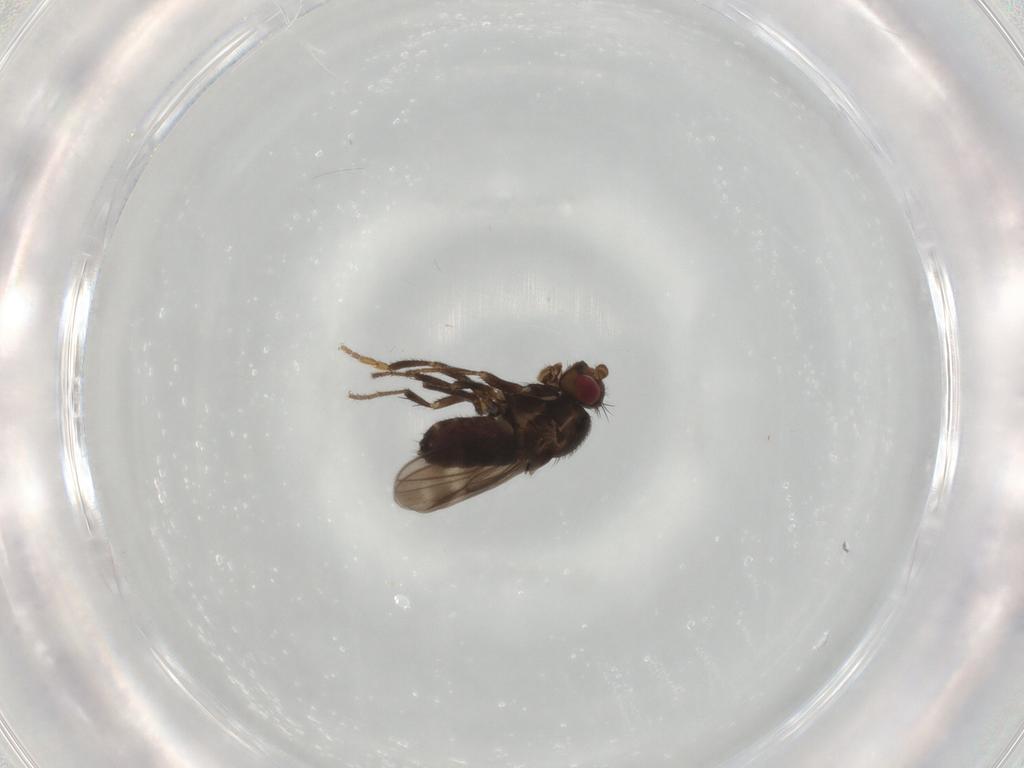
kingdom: Animalia
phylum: Arthropoda
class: Insecta
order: Diptera
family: Sphaeroceridae
